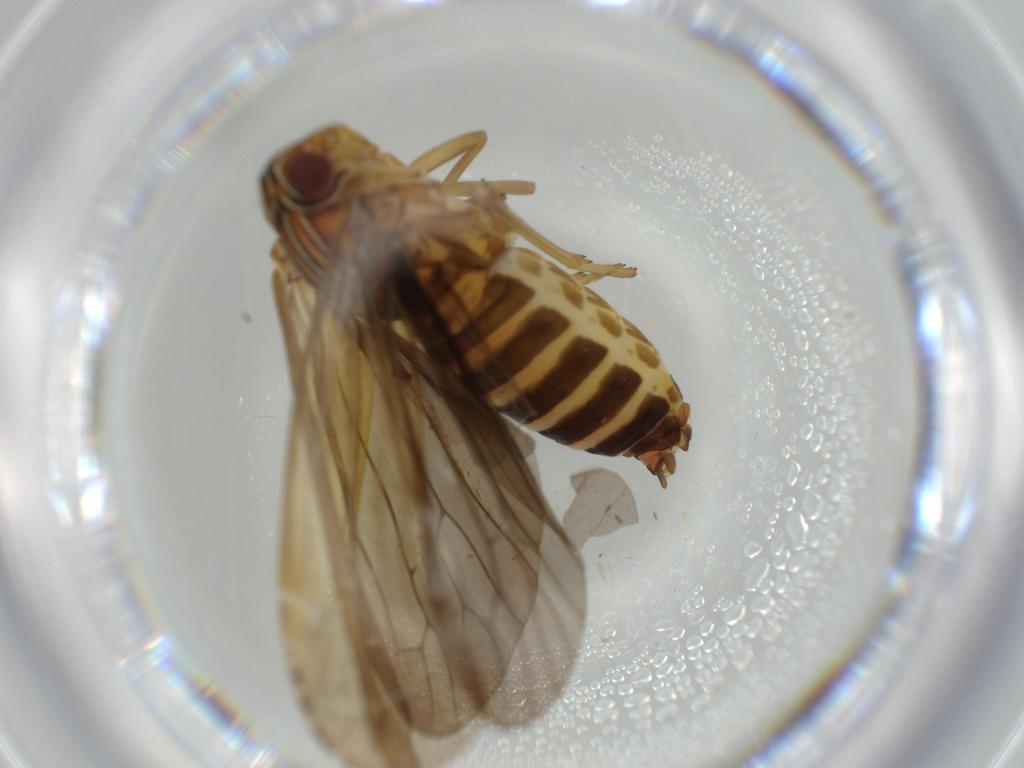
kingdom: Animalia
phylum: Arthropoda
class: Insecta
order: Hemiptera
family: Achilidae
